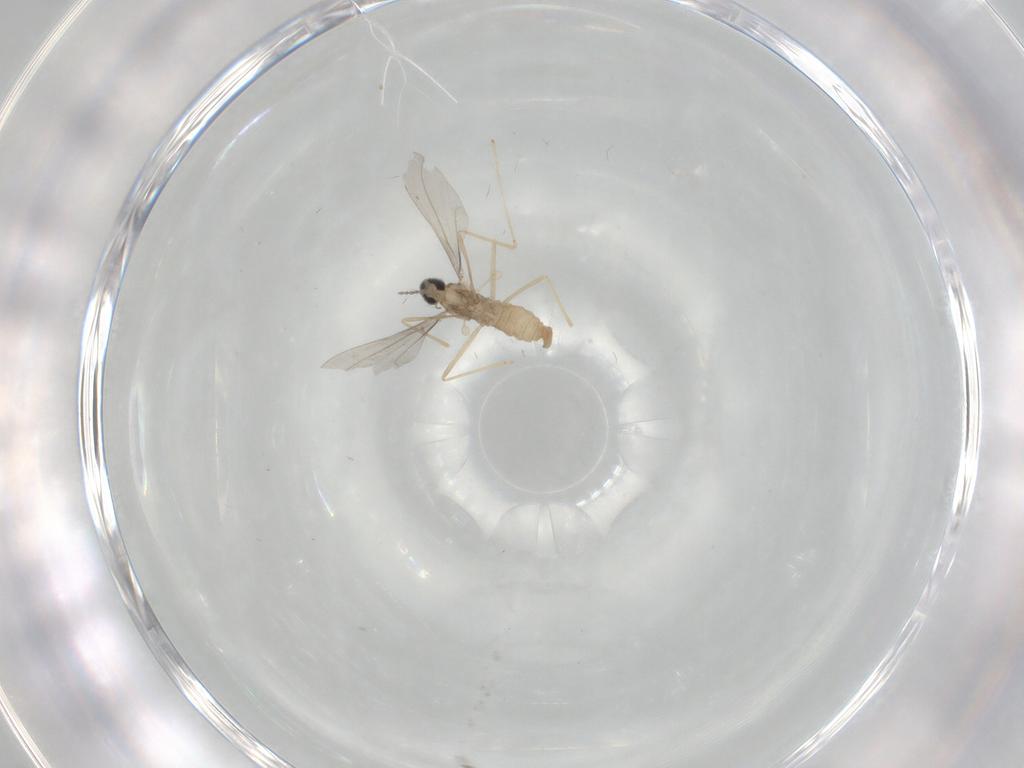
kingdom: Animalia
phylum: Arthropoda
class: Insecta
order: Diptera
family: Cecidomyiidae
